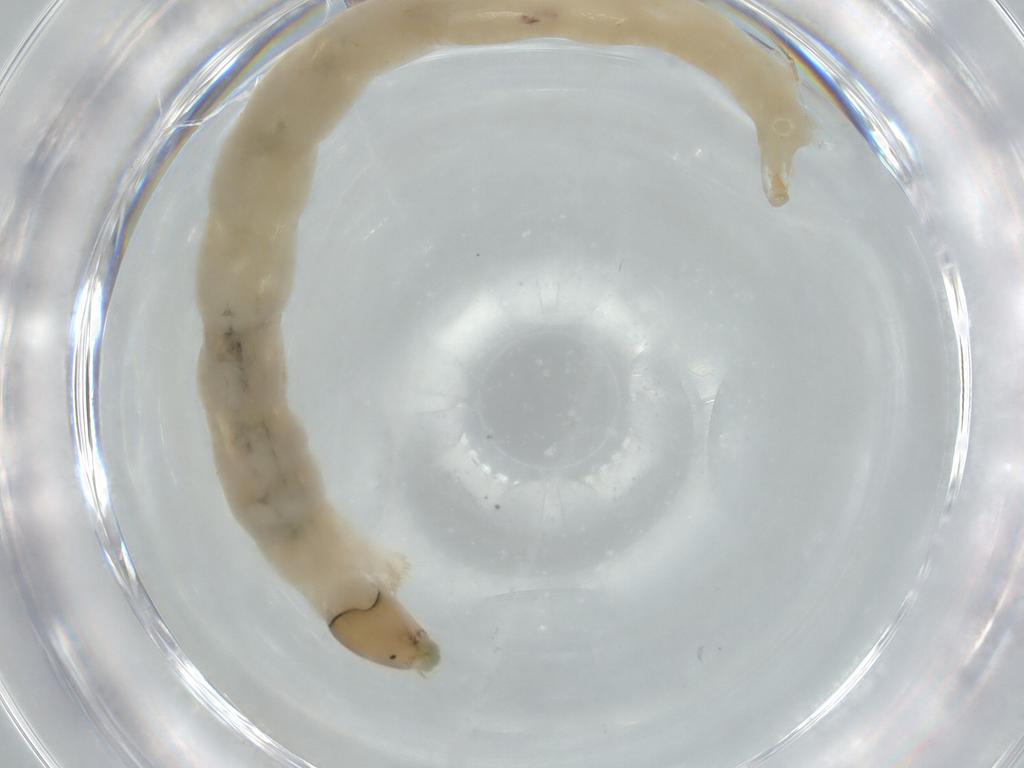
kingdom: Animalia
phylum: Arthropoda
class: Insecta
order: Diptera
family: Chironomidae
